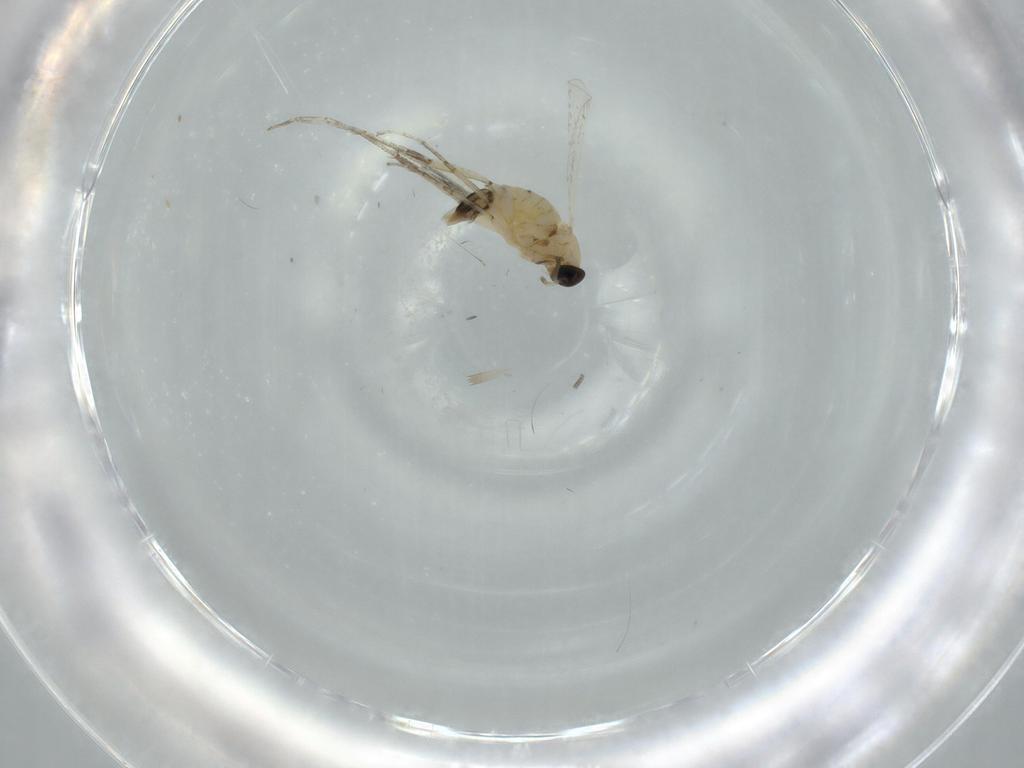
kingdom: Animalia
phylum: Arthropoda
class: Insecta
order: Diptera
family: Cecidomyiidae
